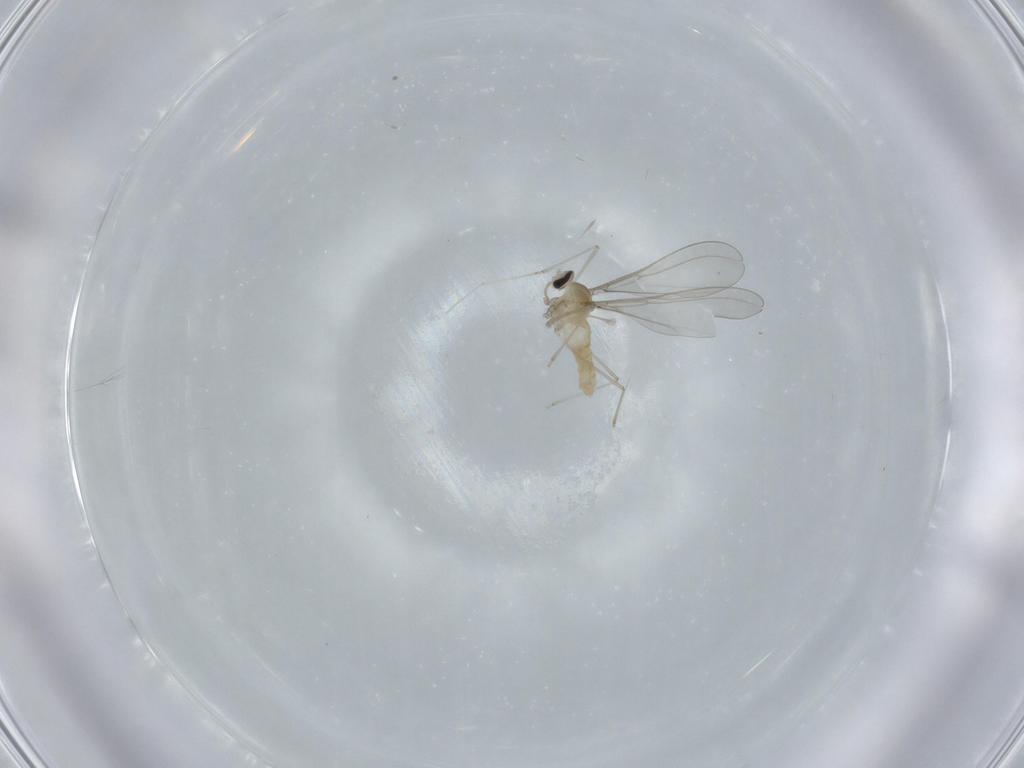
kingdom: Animalia
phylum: Arthropoda
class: Insecta
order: Diptera
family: Cecidomyiidae
